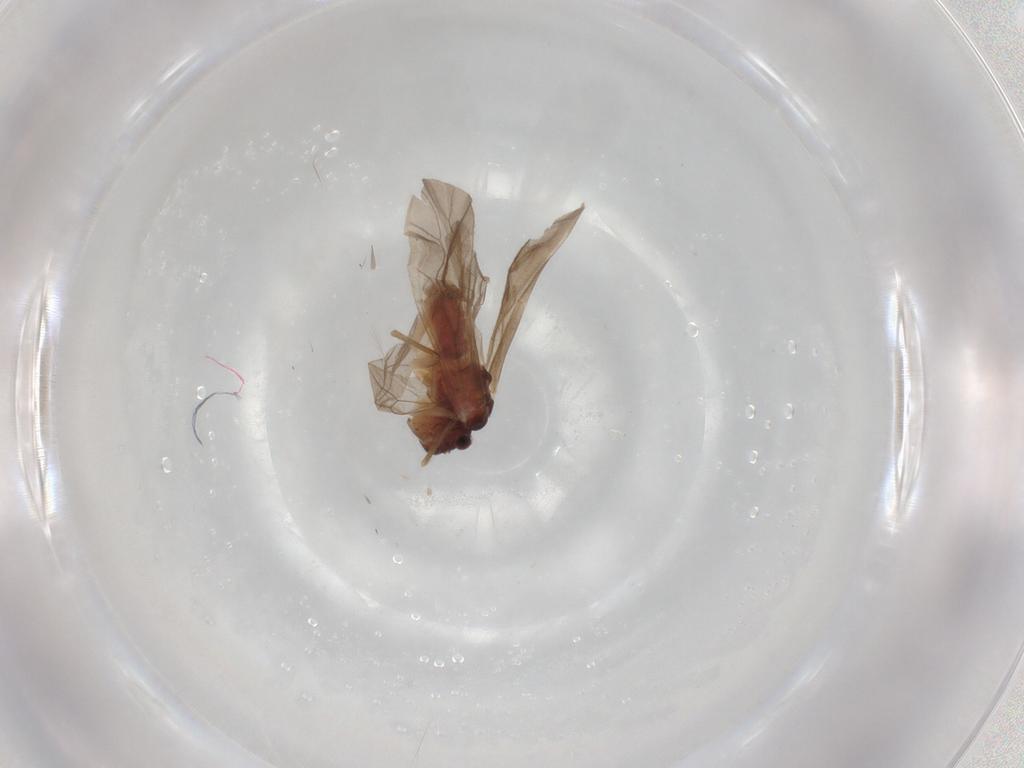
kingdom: Animalia
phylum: Arthropoda
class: Insecta
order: Psocodea
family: Caeciliusidae
